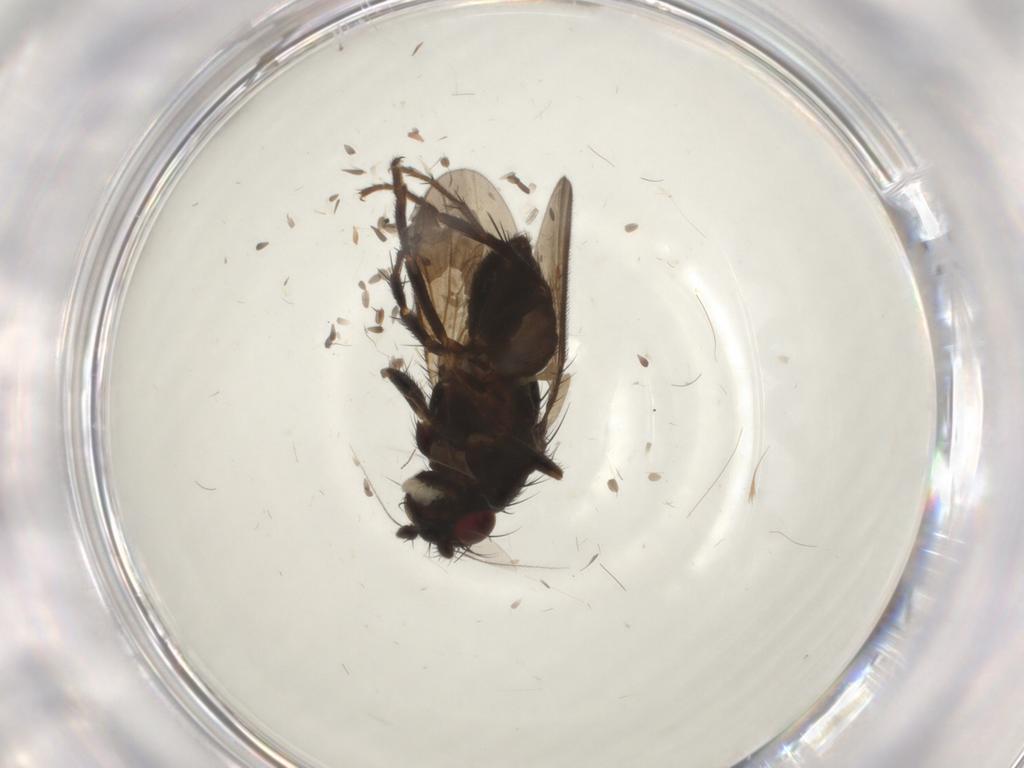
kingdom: Animalia
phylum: Arthropoda
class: Insecta
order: Diptera
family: Sphaeroceridae
